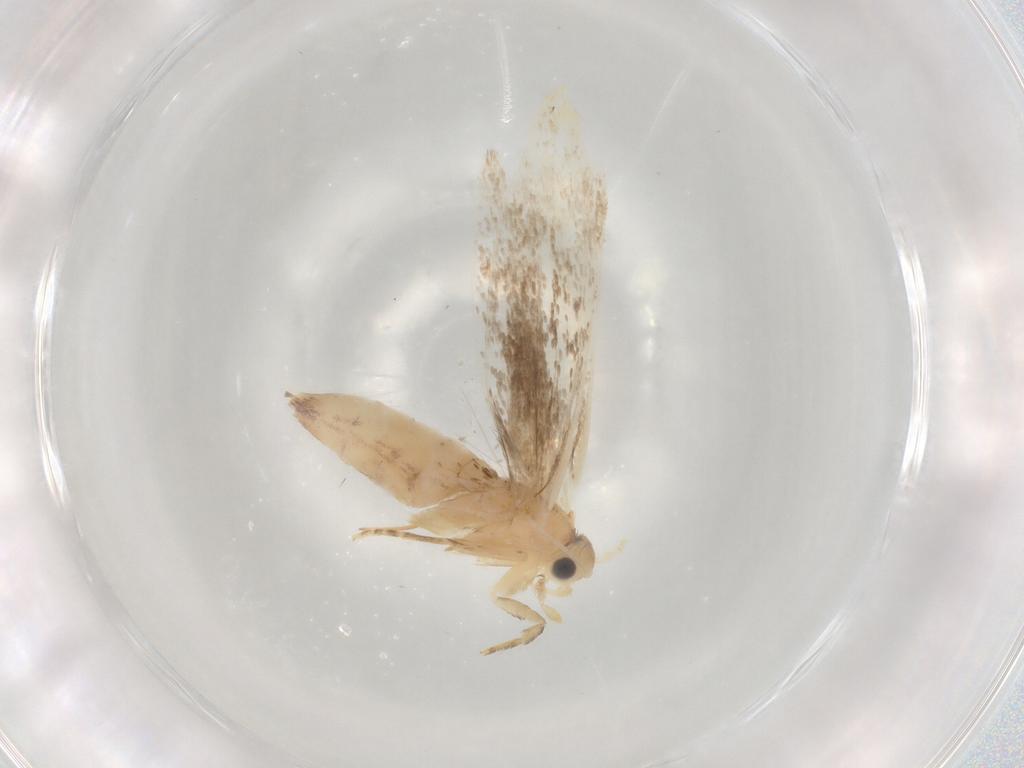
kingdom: Animalia
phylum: Arthropoda
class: Insecta
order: Lepidoptera
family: Dryadaulidae
